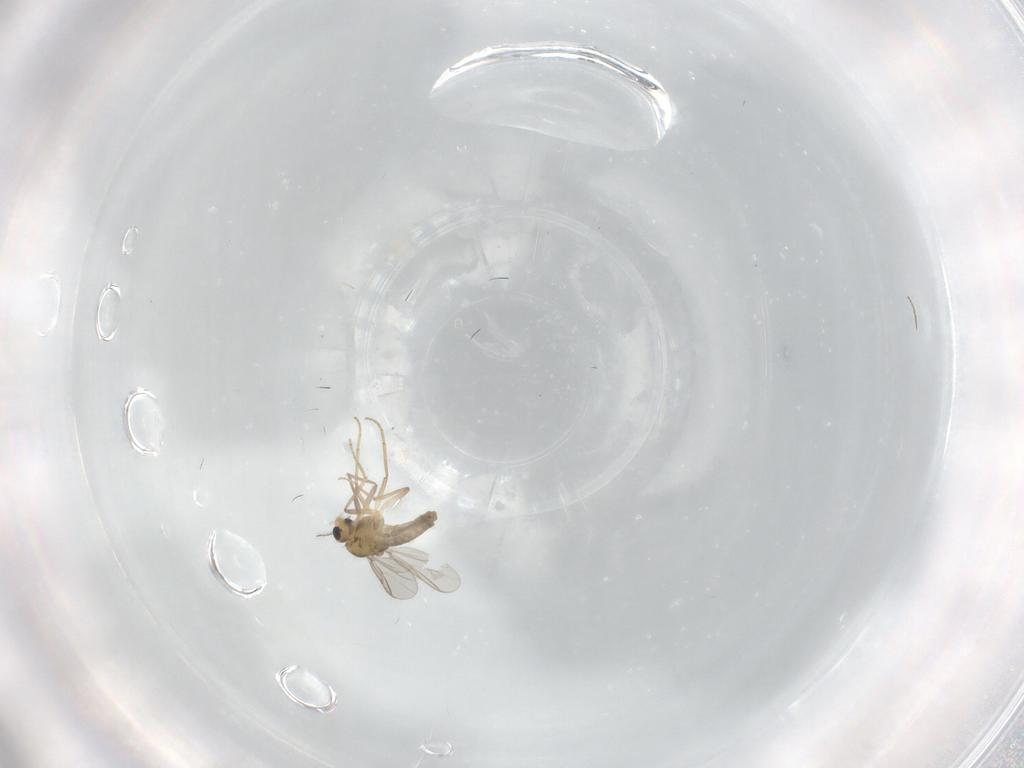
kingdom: Animalia
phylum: Arthropoda
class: Insecta
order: Diptera
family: Chironomidae
